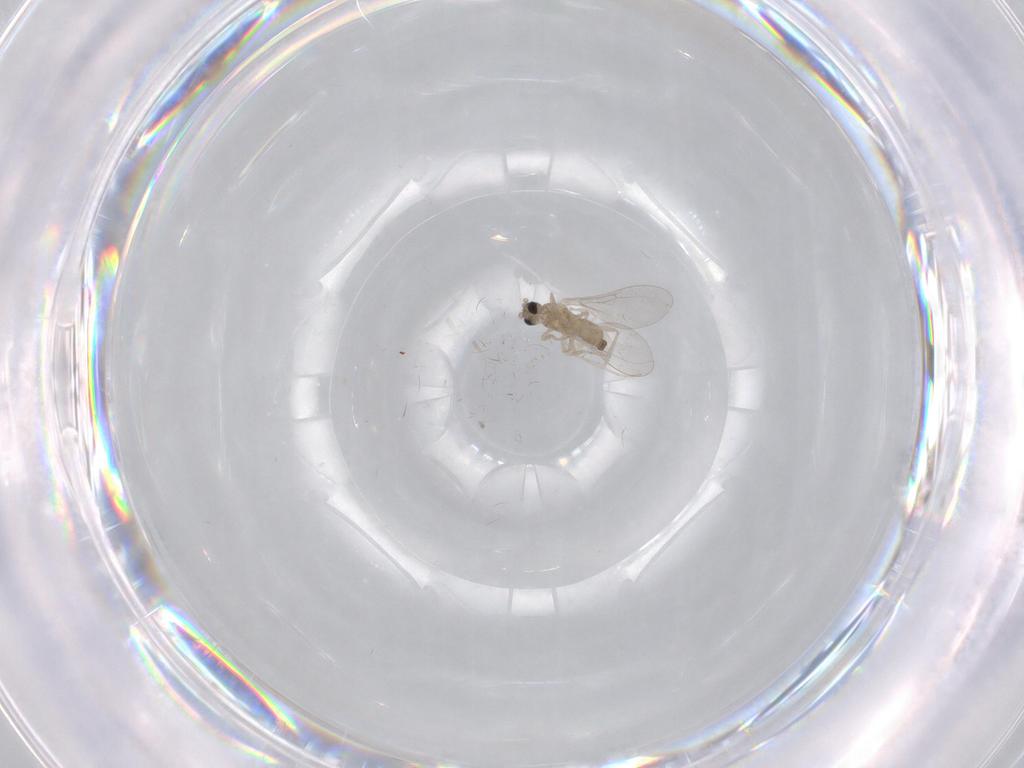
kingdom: Animalia
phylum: Arthropoda
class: Insecta
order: Diptera
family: Cecidomyiidae
